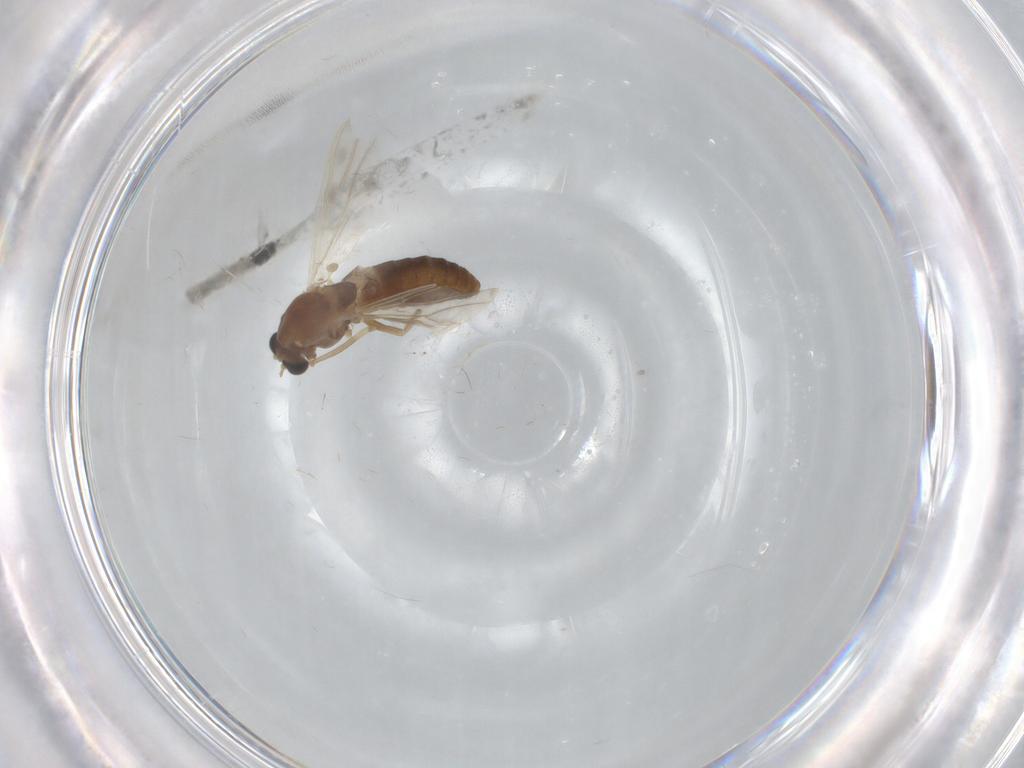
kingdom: Animalia
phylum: Arthropoda
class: Insecta
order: Diptera
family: Chironomidae
